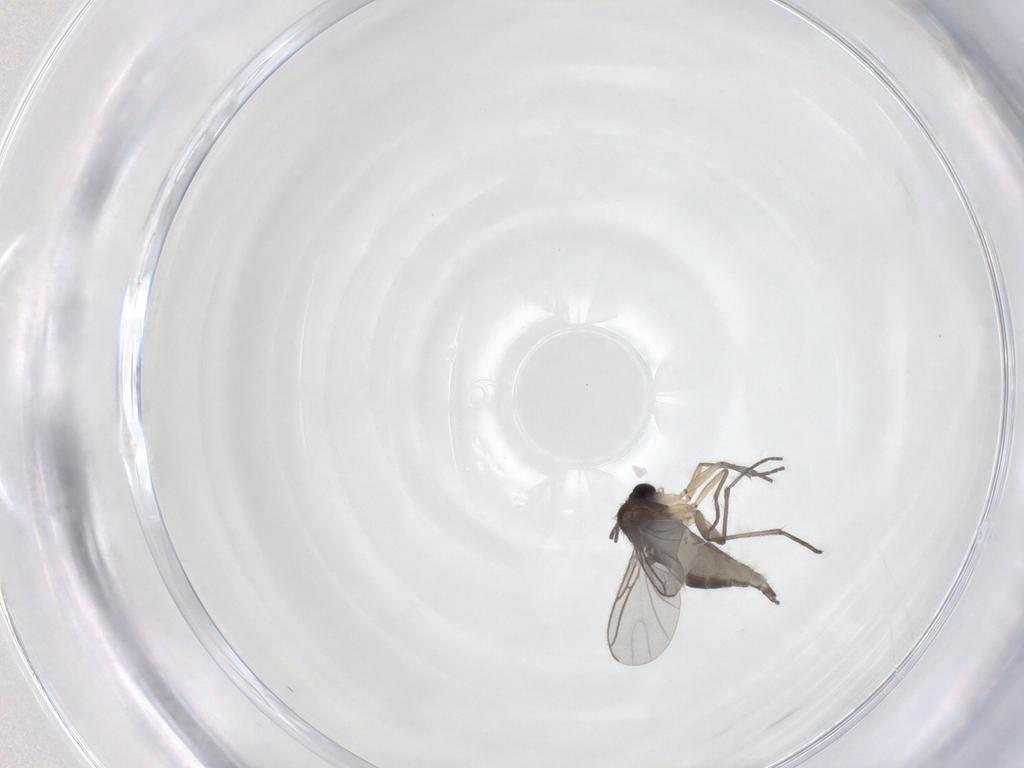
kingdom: Animalia
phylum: Arthropoda
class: Insecta
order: Diptera
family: Sciaridae
